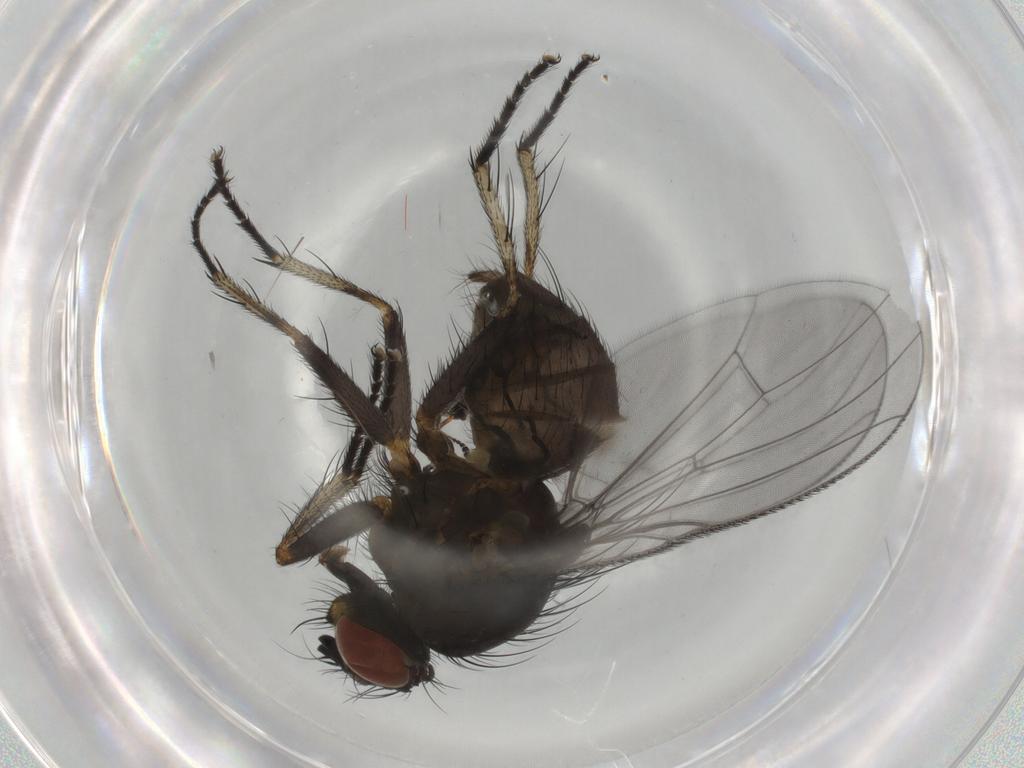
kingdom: Animalia
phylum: Arthropoda
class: Insecta
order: Diptera
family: Muscidae
